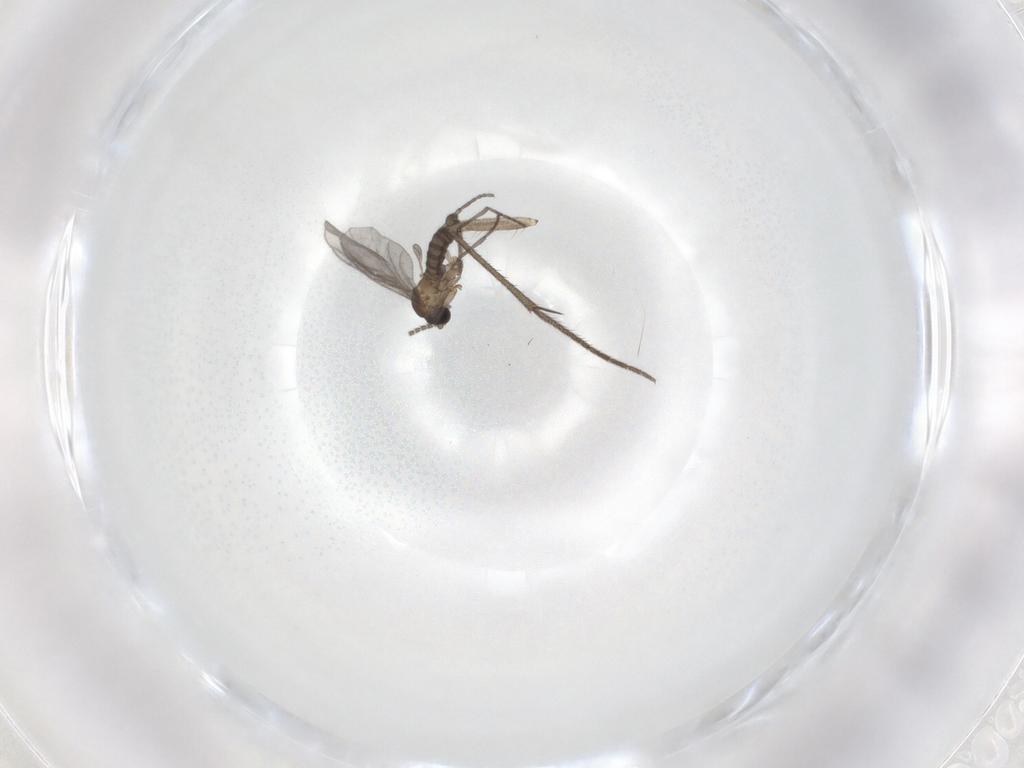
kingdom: Animalia
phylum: Arthropoda
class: Insecta
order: Diptera
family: Sciaridae
